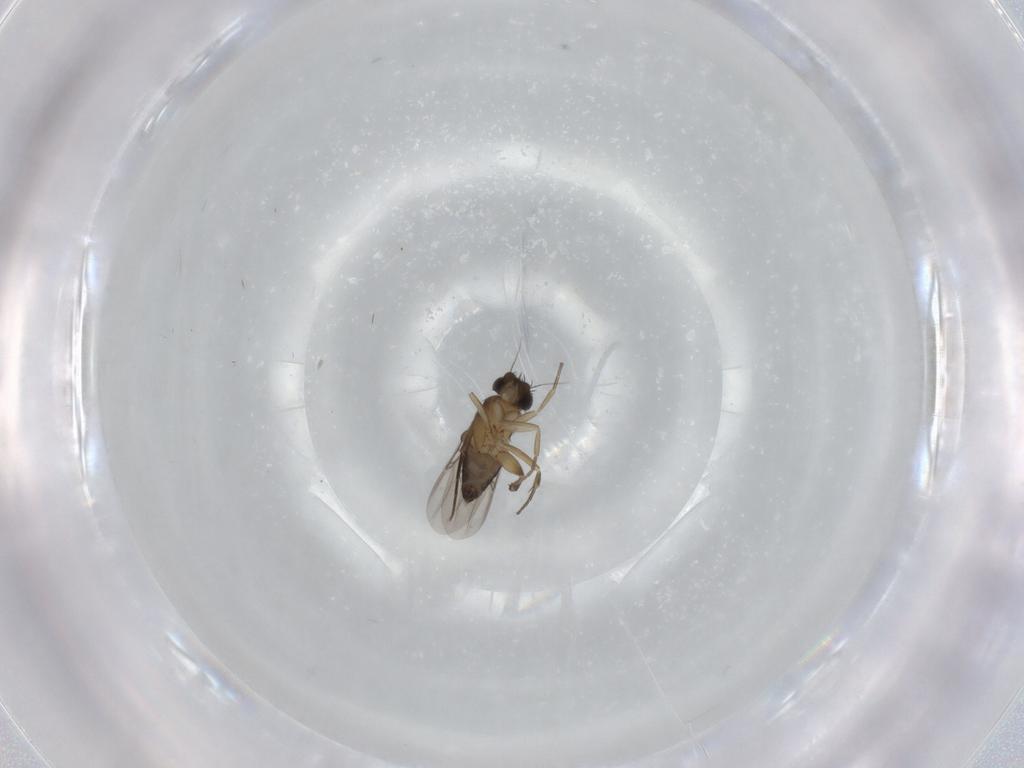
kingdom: Animalia
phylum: Arthropoda
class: Insecta
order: Diptera
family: Phoridae
